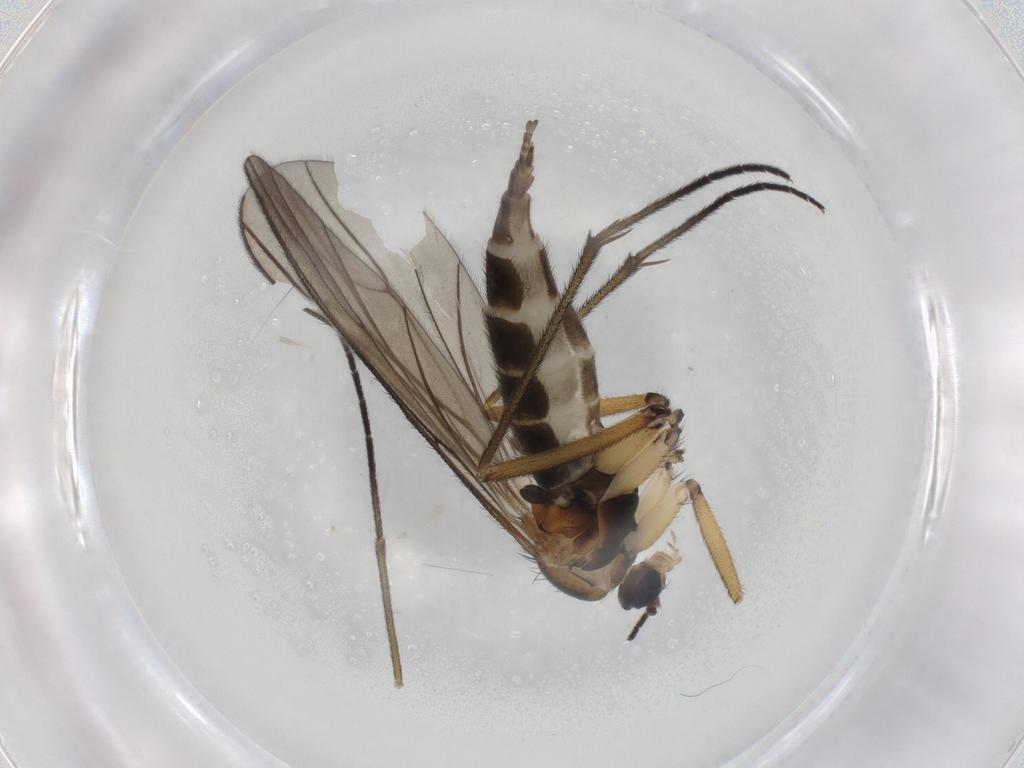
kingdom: Animalia
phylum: Arthropoda
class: Insecta
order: Diptera
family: Sciaridae
